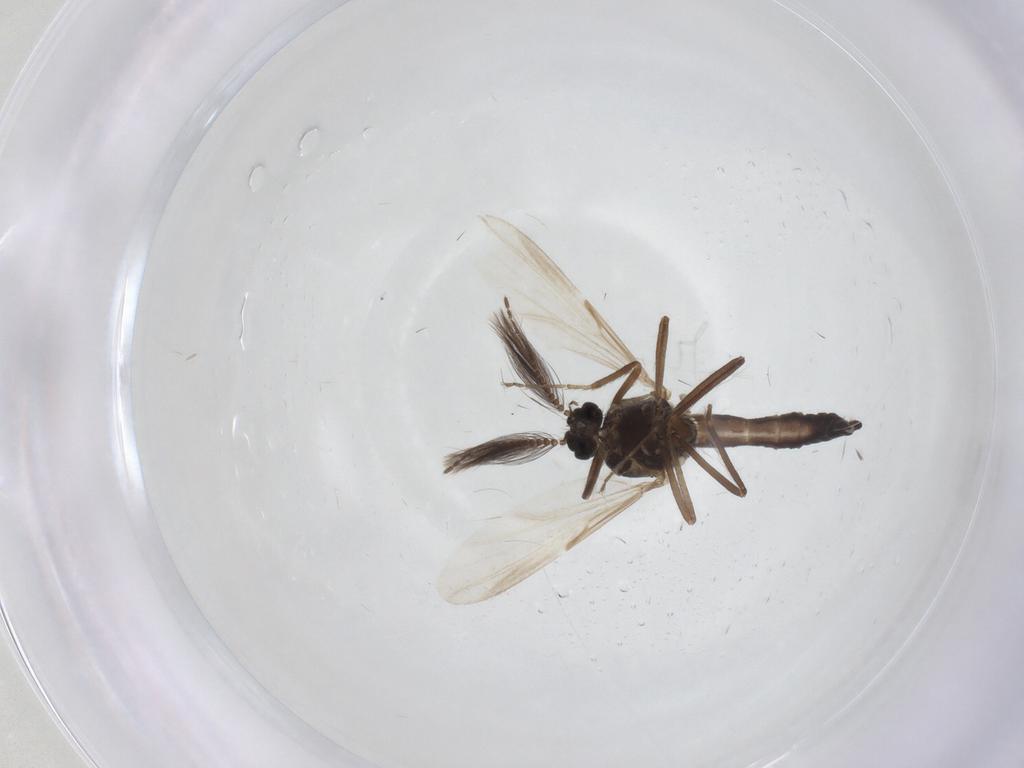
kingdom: Animalia
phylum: Arthropoda
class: Insecta
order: Diptera
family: Ceratopogonidae
